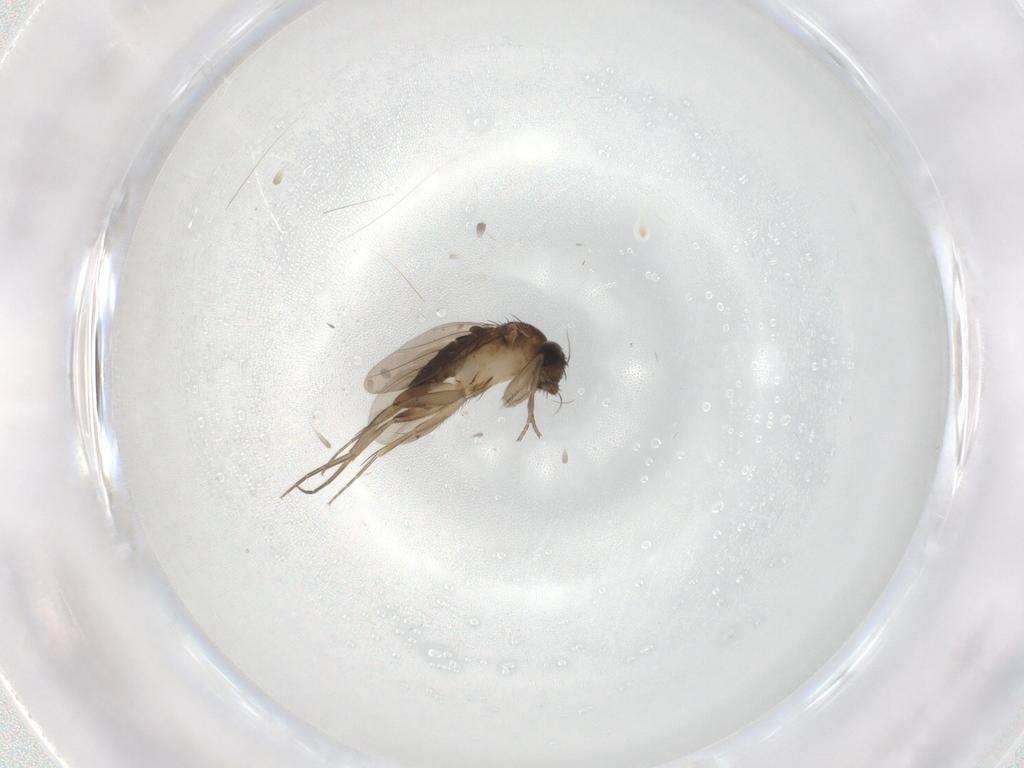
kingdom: Animalia
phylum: Arthropoda
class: Insecta
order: Diptera
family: Phoridae
